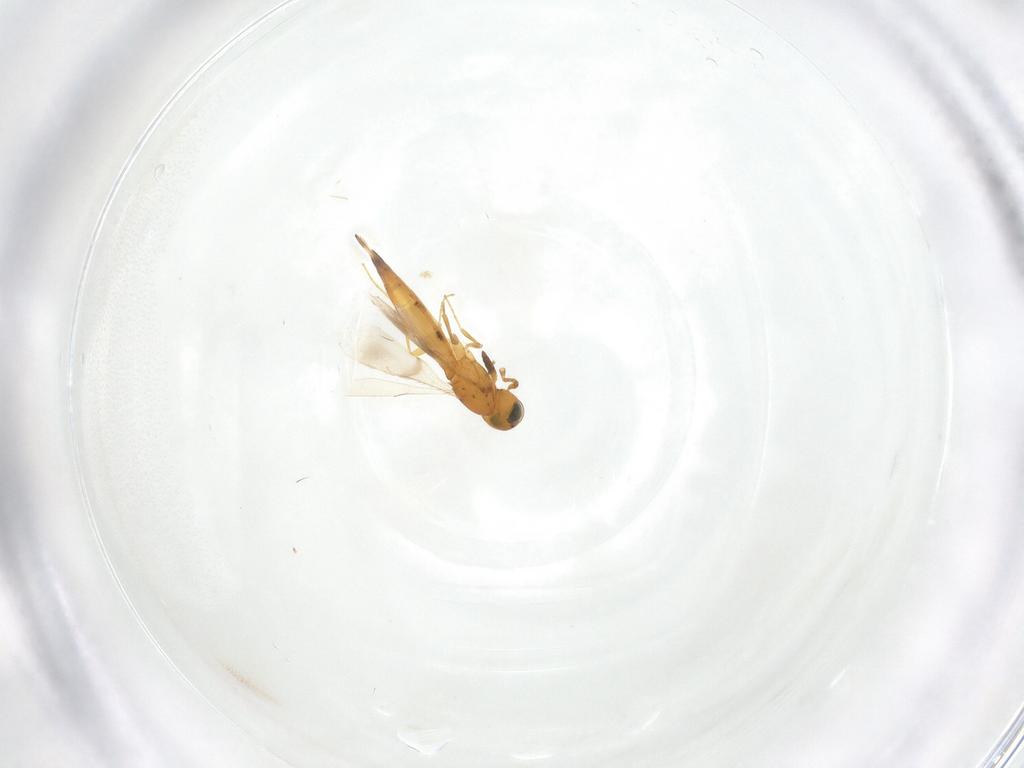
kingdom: Animalia
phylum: Arthropoda
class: Insecta
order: Hymenoptera
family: Scelionidae
